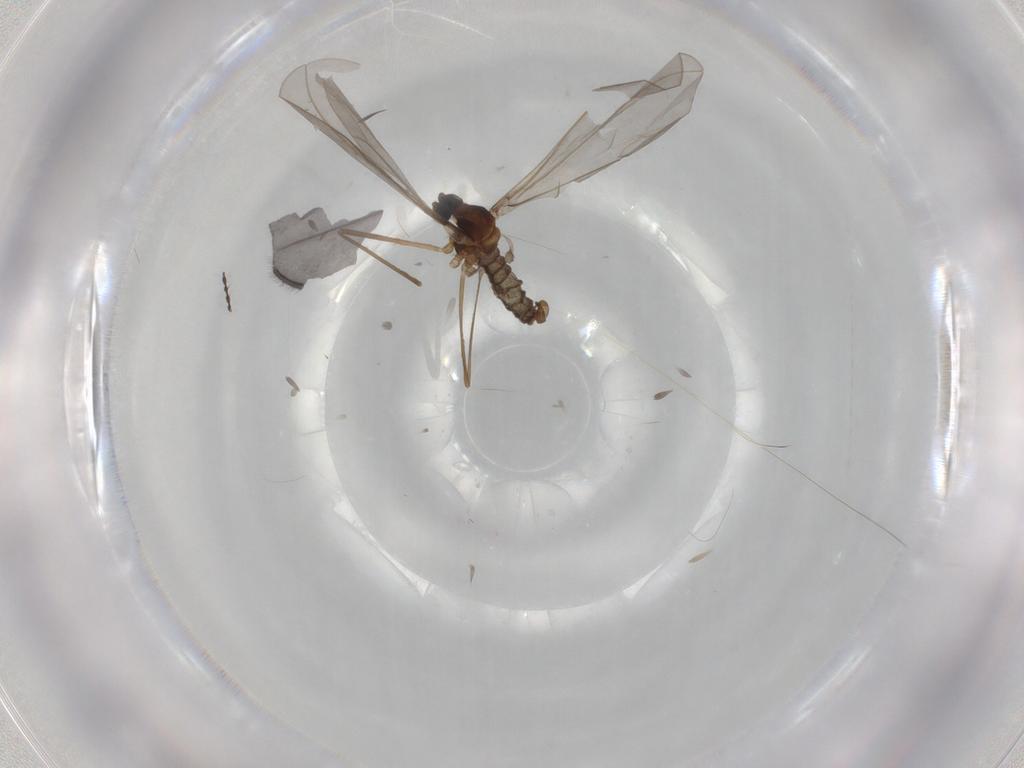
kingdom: Animalia
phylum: Arthropoda
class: Insecta
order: Diptera
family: Cecidomyiidae
